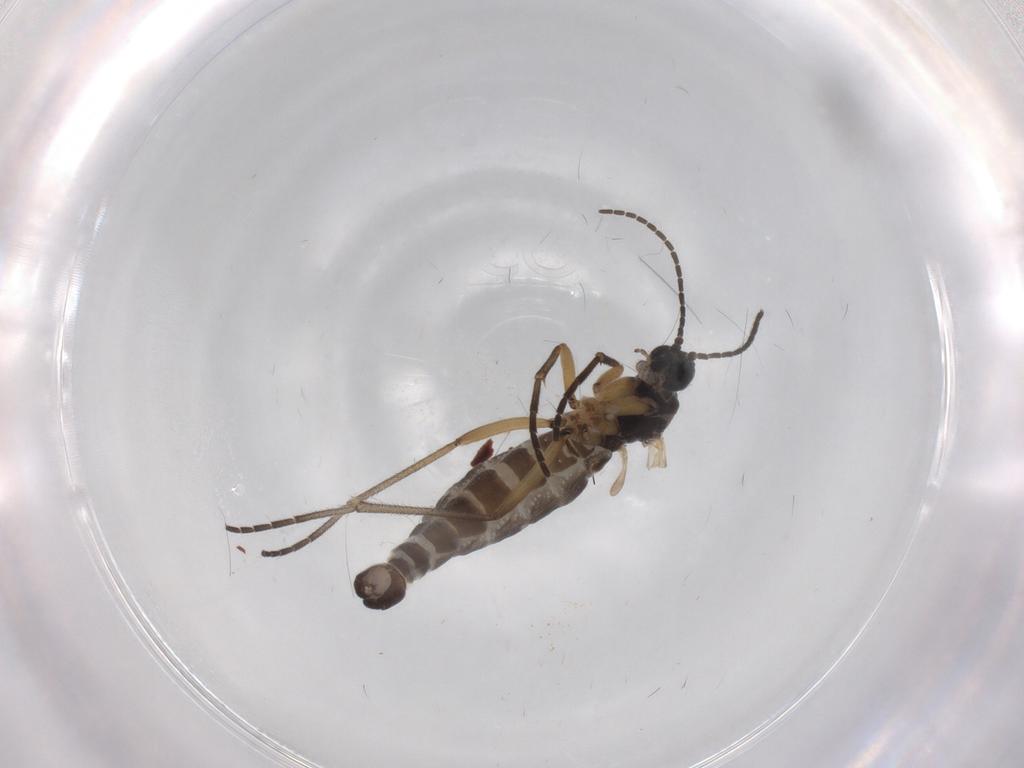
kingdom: Animalia
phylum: Arthropoda
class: Insecta
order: Diptera
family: Sciaridae
